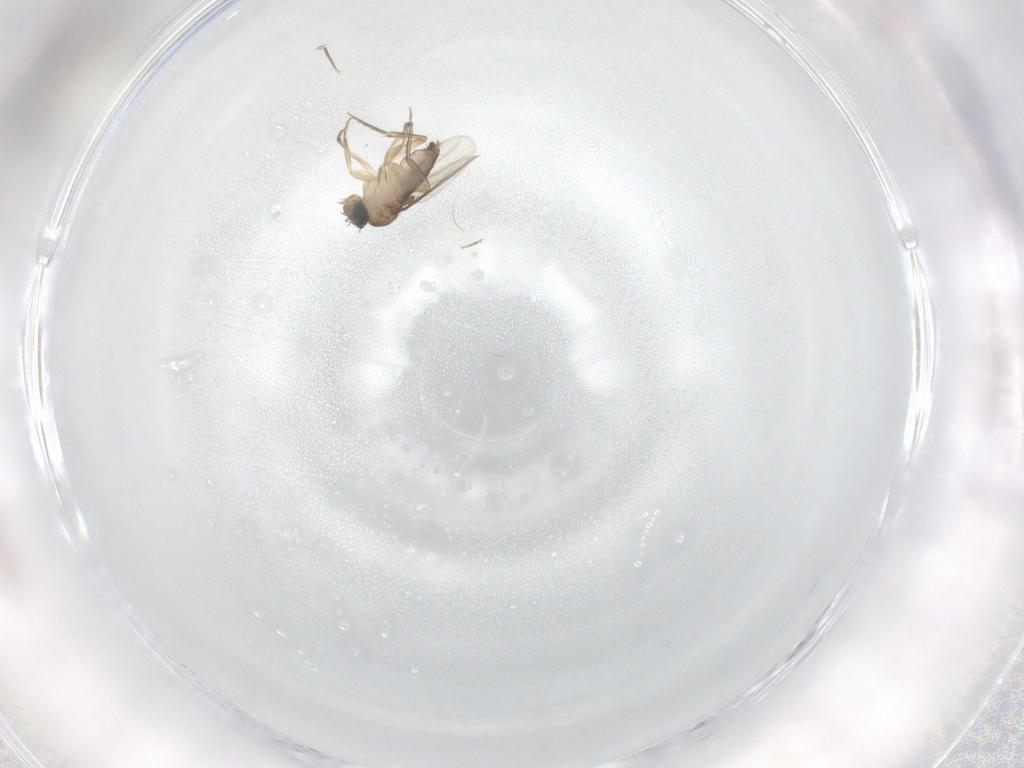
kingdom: Animalia
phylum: Arthropoda
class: Insecta
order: Diptera
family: Phoridae
